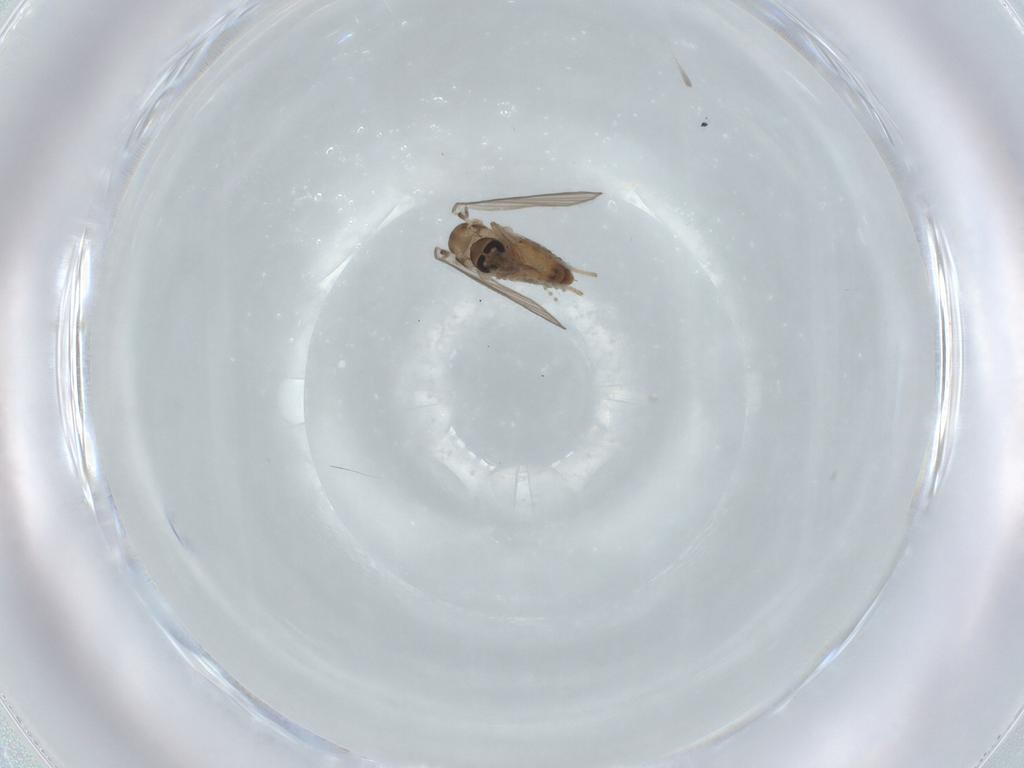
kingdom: Animalia
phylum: Arthropoda
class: Insecta
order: Diptera
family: Psychodidae
